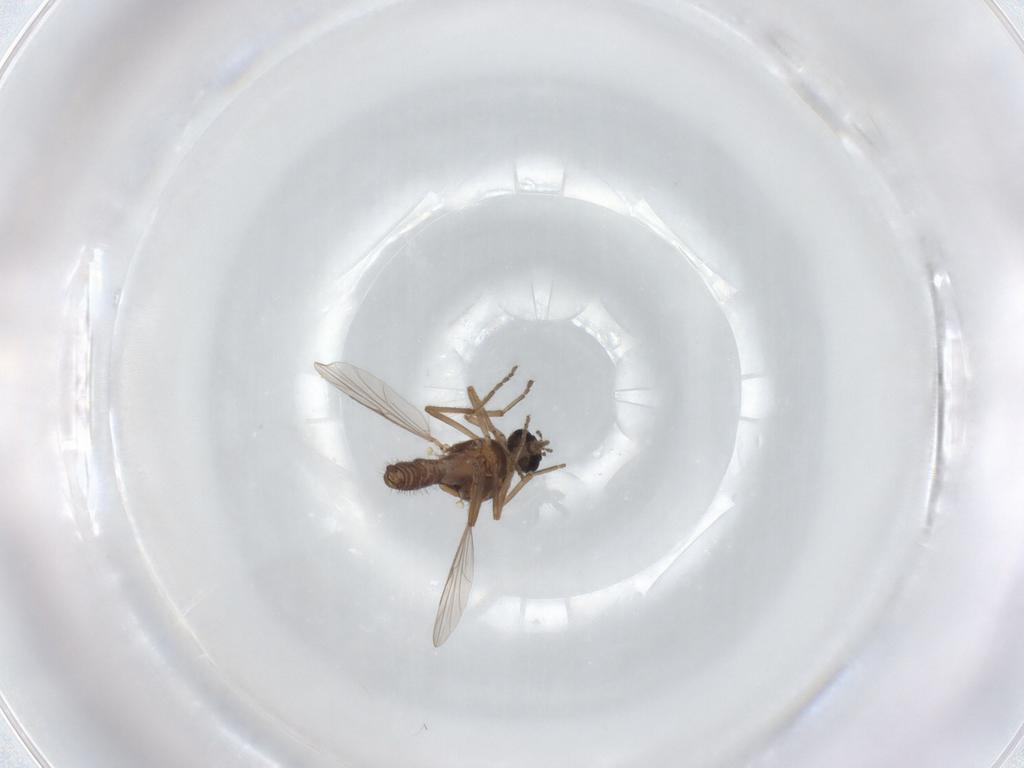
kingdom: Animalia
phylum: Arthropoda
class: Insecta
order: Diptera
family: Ceratopogonidae
